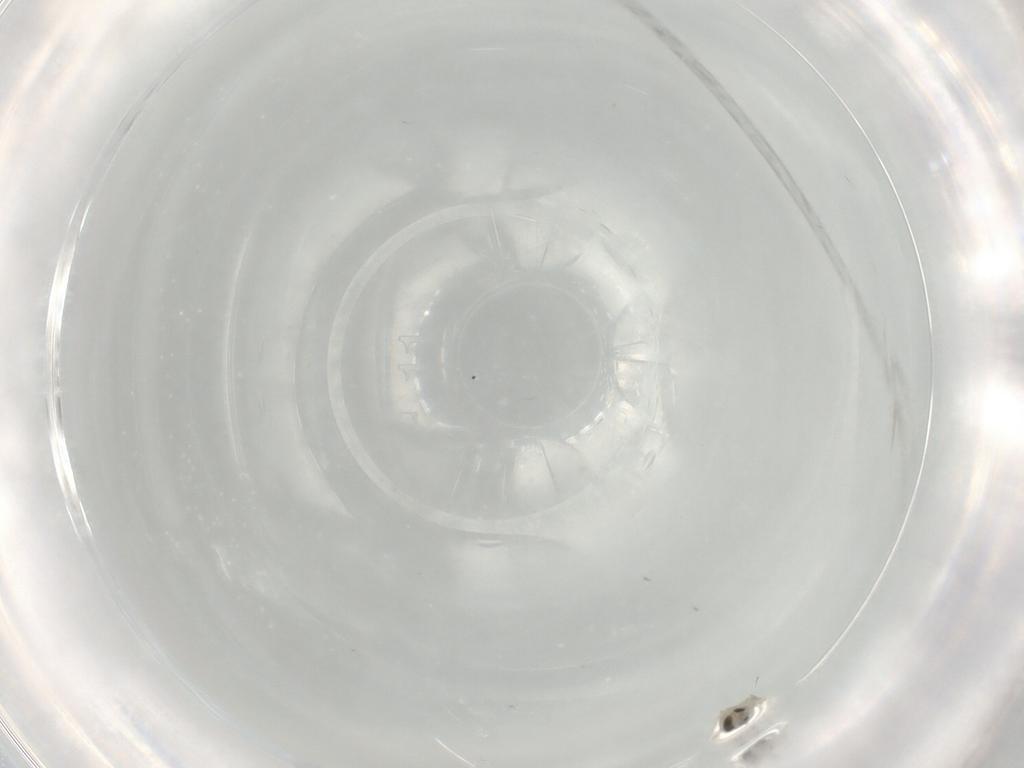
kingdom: Animalia
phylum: Arthropoda
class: Insecta
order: Diptera
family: Cecidomyiidae
